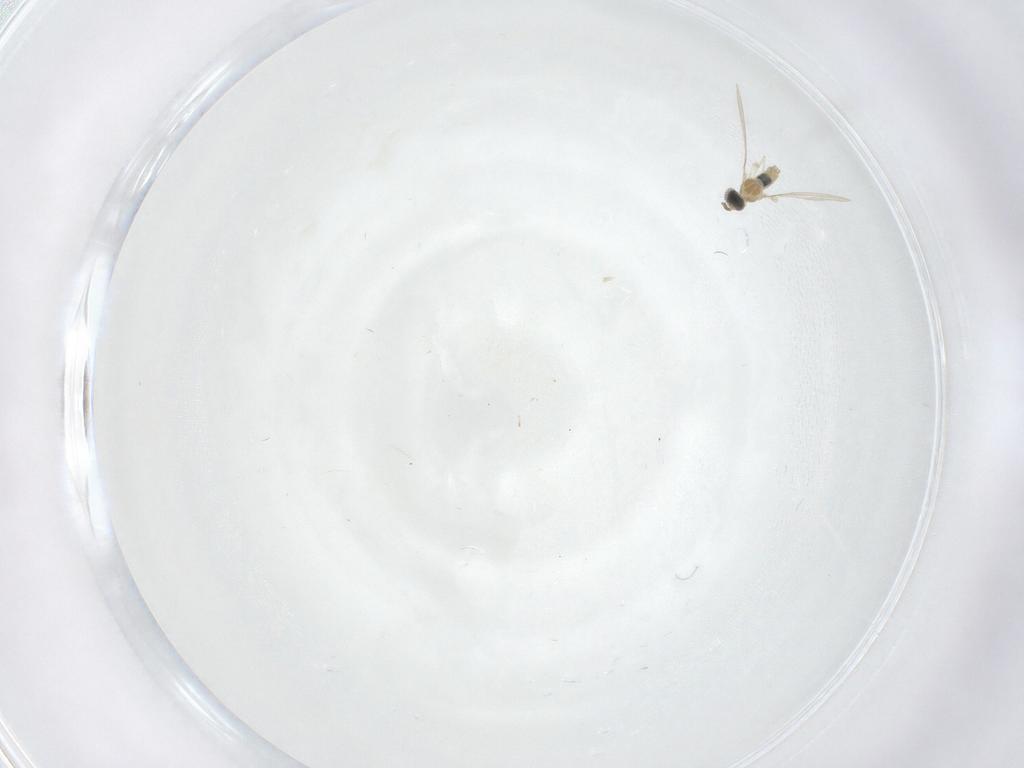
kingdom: Animalia
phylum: Arthropoda
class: Insecta
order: Diptera
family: Cecidomyiidae
